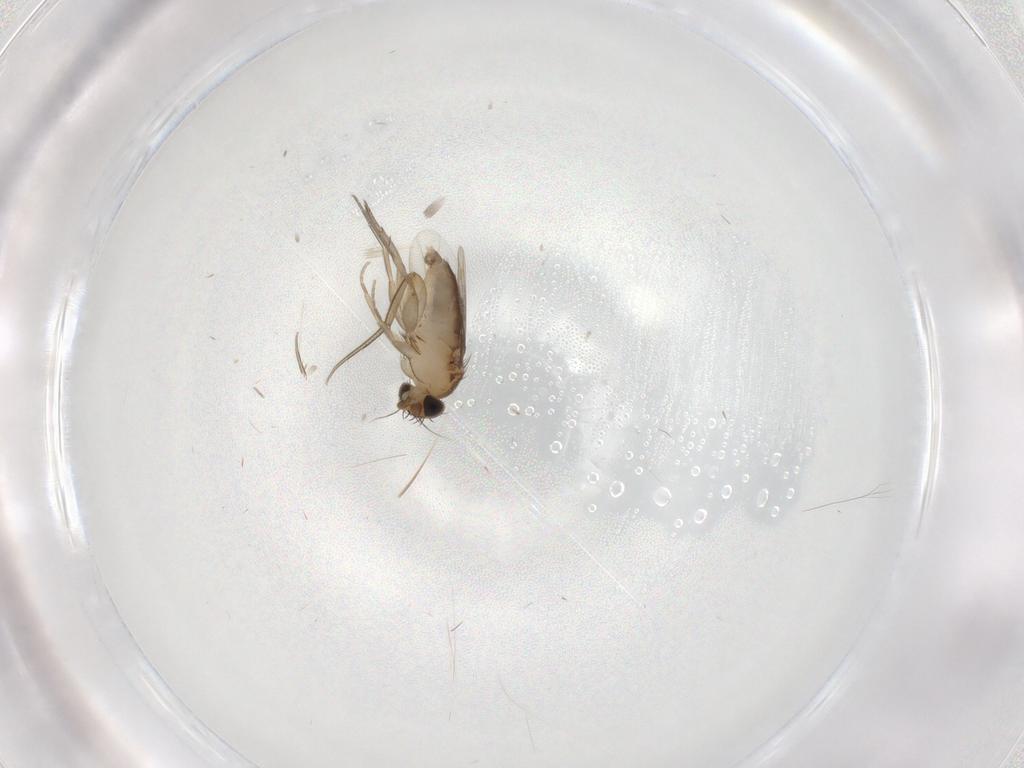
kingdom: Animalia
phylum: Arthropoda
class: Insecta
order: Diptera
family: Phoridae
